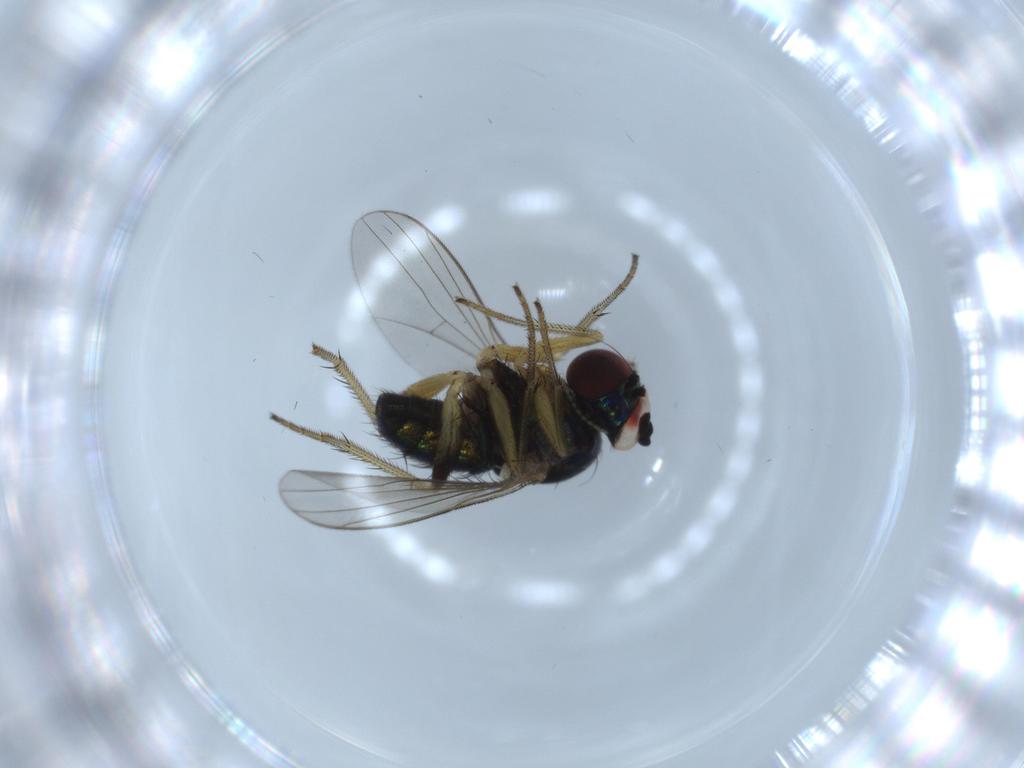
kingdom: Animalia
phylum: Arthropoda
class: Insecta
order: Diptera
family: Dolichopodidae
